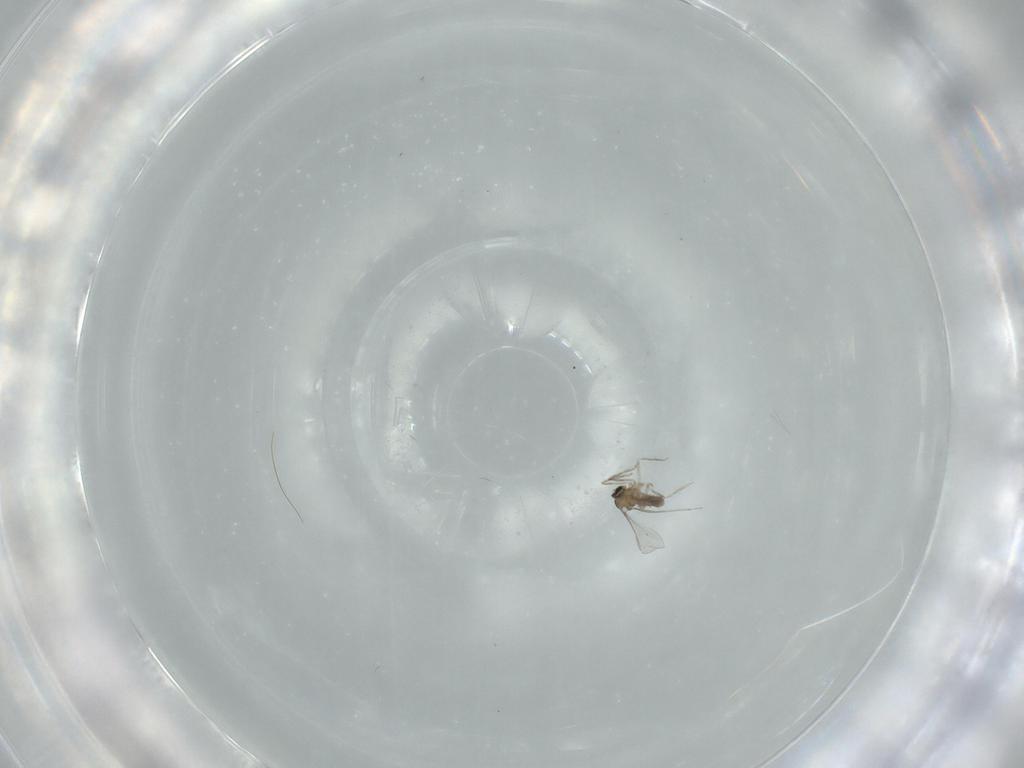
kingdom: Animalia
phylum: Arthropoda
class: Insecta
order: Diptera
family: Cecidomyiidae
